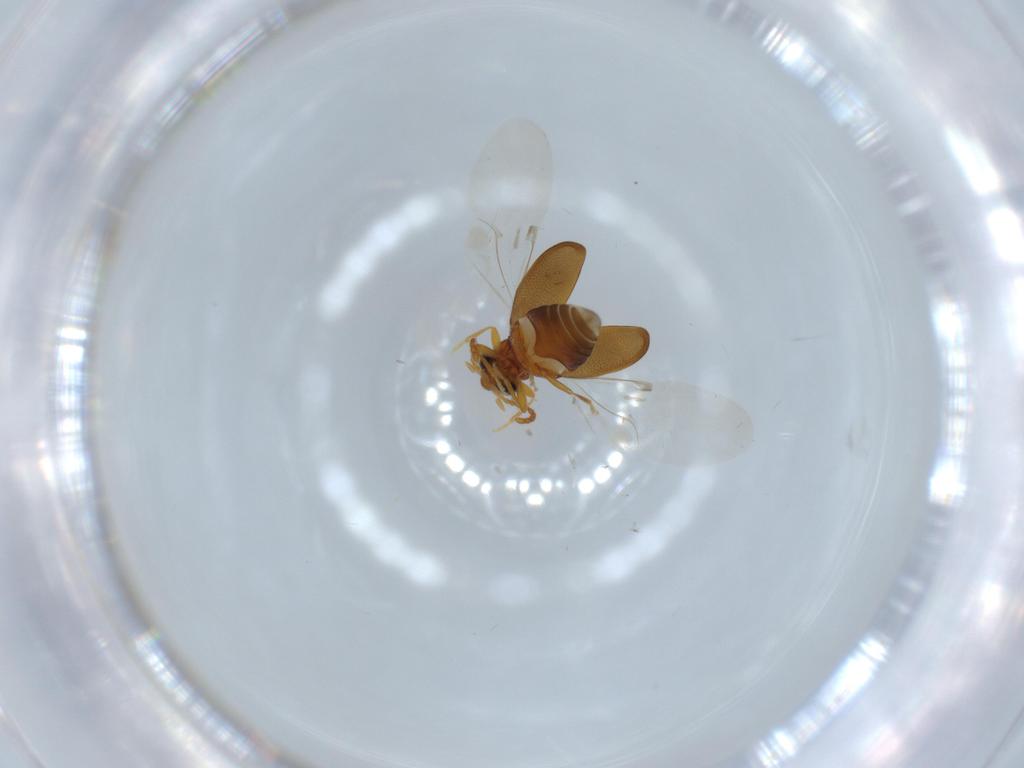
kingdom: Animalia
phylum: Arthropoda
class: Insecta
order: Coleoptera
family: Aderidae
